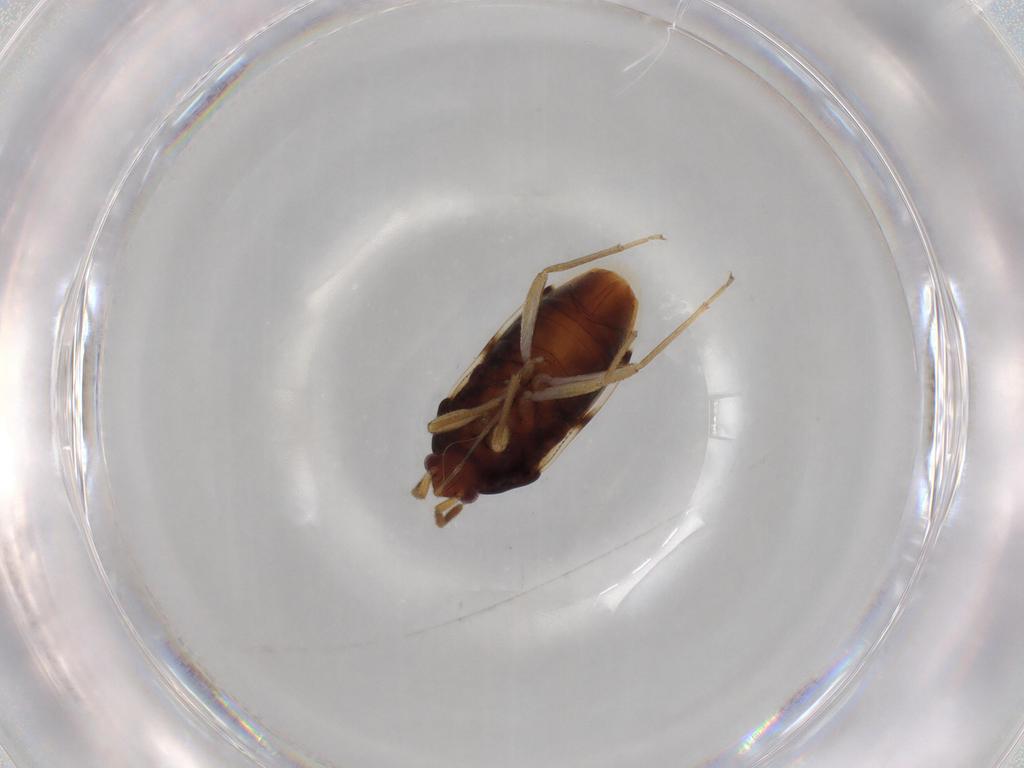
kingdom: Animalia
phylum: Arthropoda
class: Insecta
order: Hemiptera
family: Rhyparochromidae
